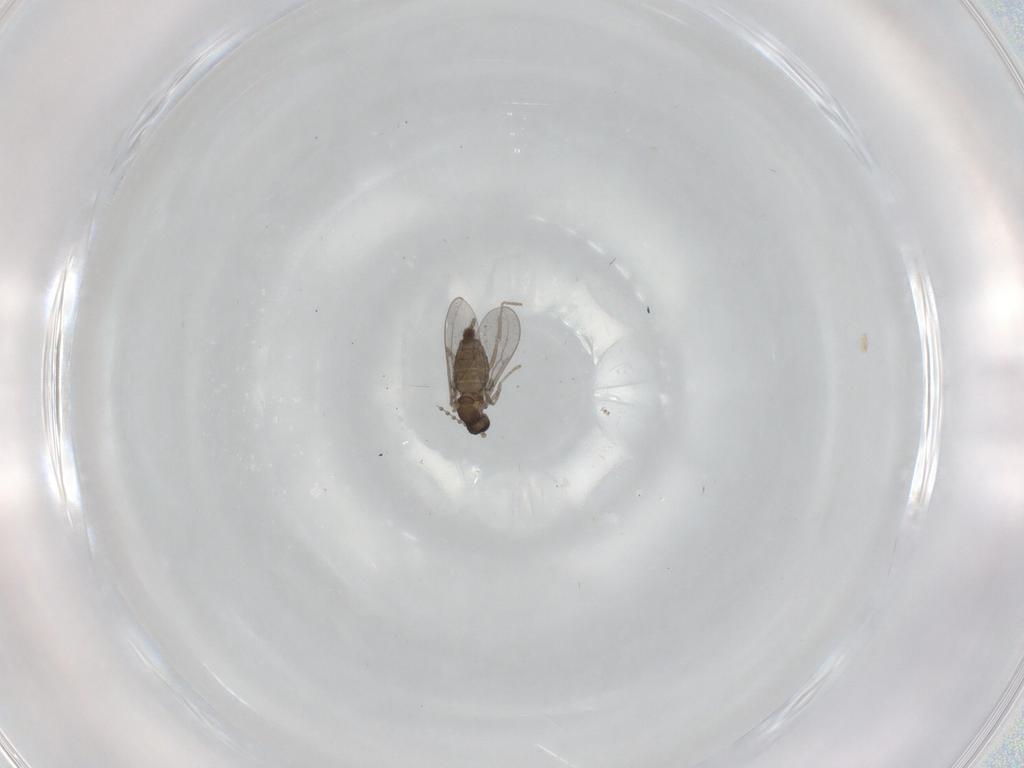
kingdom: Animalia
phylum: Arthropoda
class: Insecta
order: Diptera
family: Cecidomyiidae
